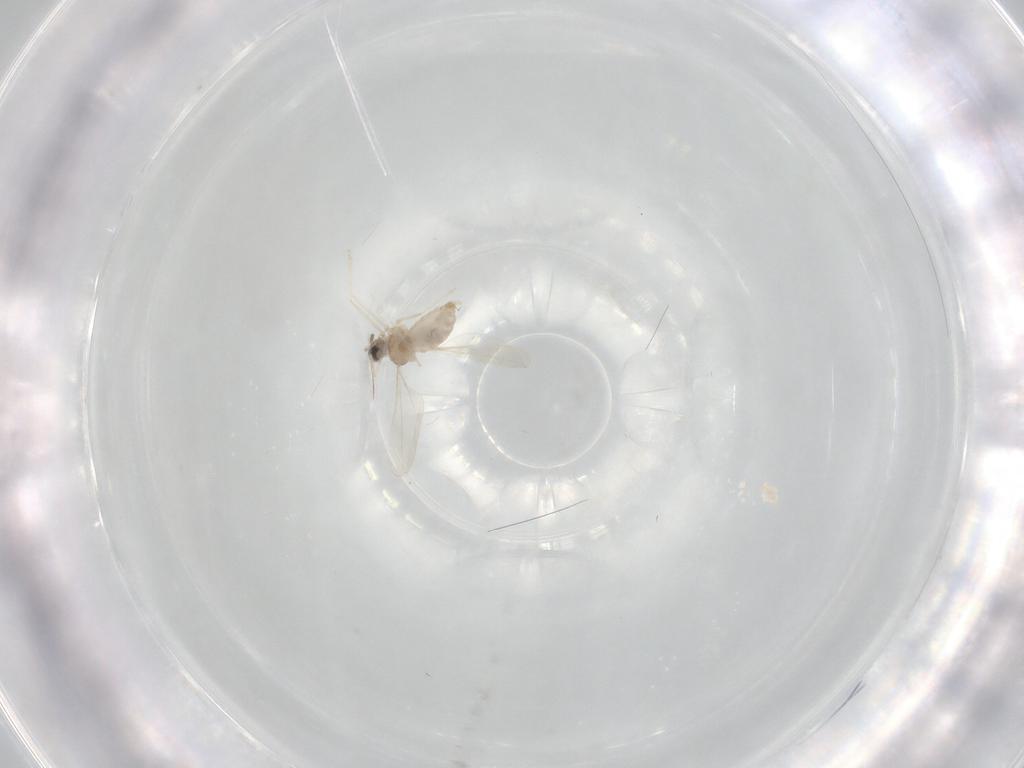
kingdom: Animalia
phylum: Arthropoda
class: Insecta
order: Diptera
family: Cecidomyiidae
